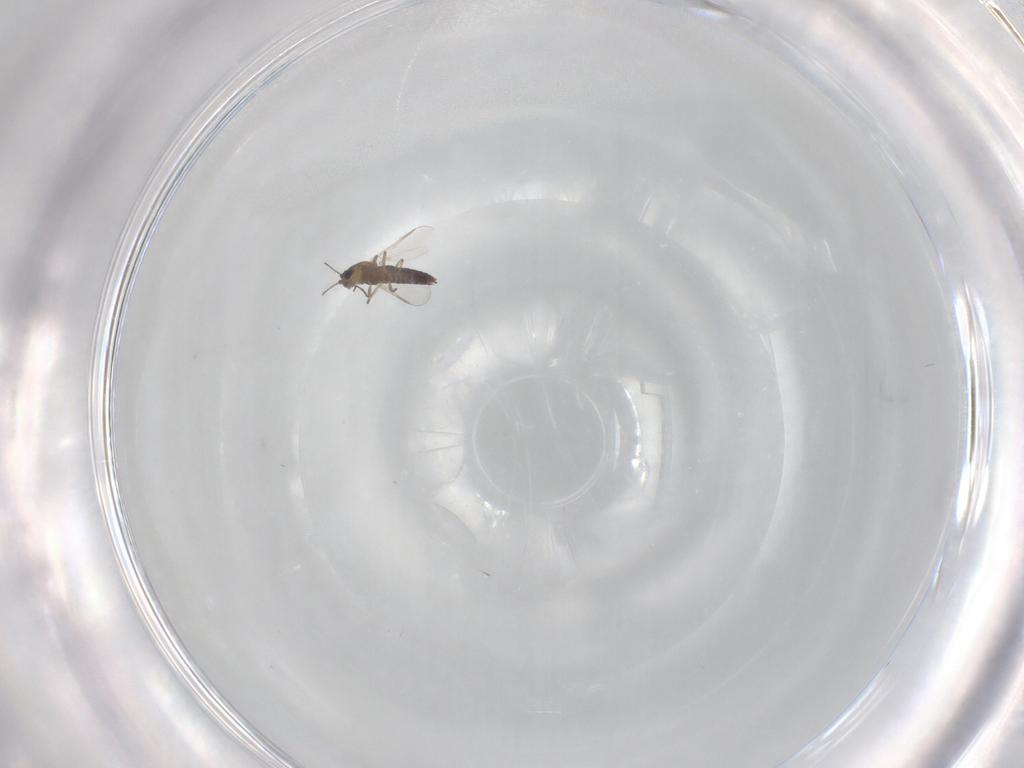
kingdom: Animalia
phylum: Arthropoda
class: Insecta
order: Diptera
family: Chironomidae
